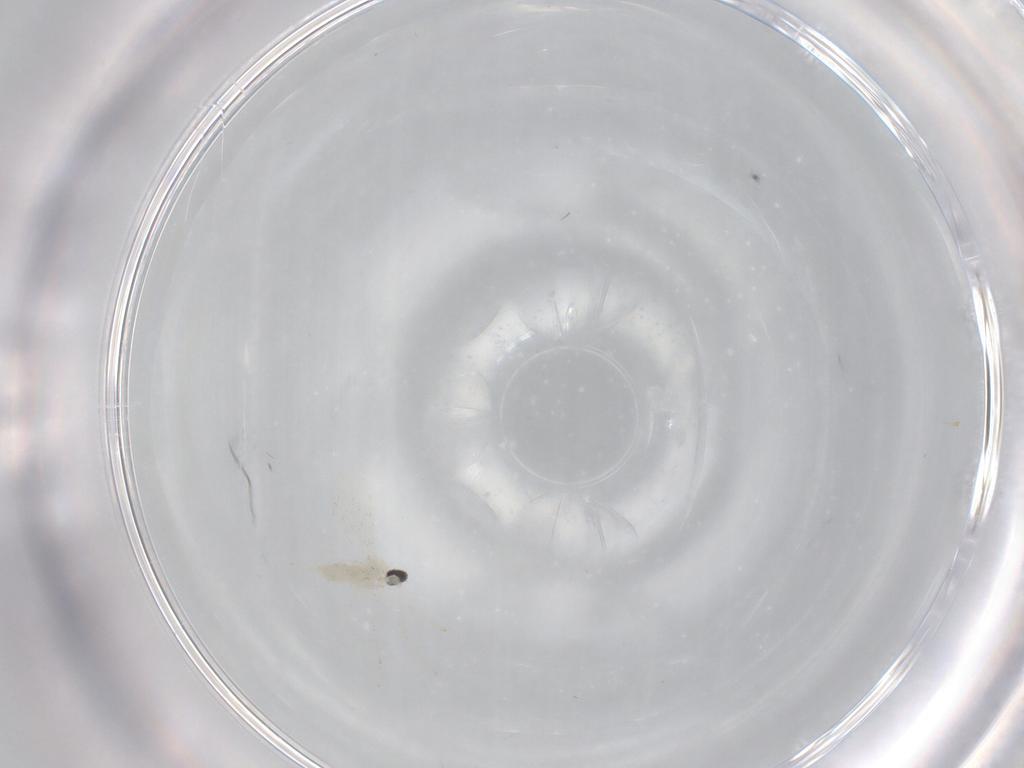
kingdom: Animalia
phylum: Arthropoda
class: Insecta
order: Diptera
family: Cecidomyiidae
